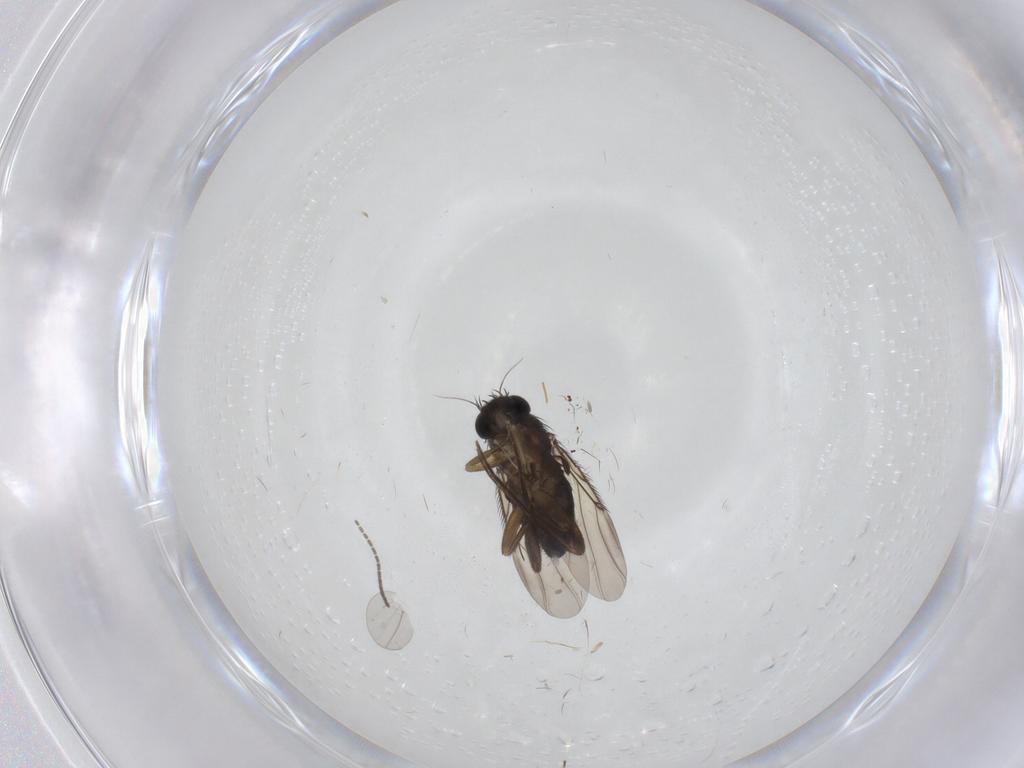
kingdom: Animalia
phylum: Arthropoda
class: Insecta
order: Diptera
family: Phoridae
